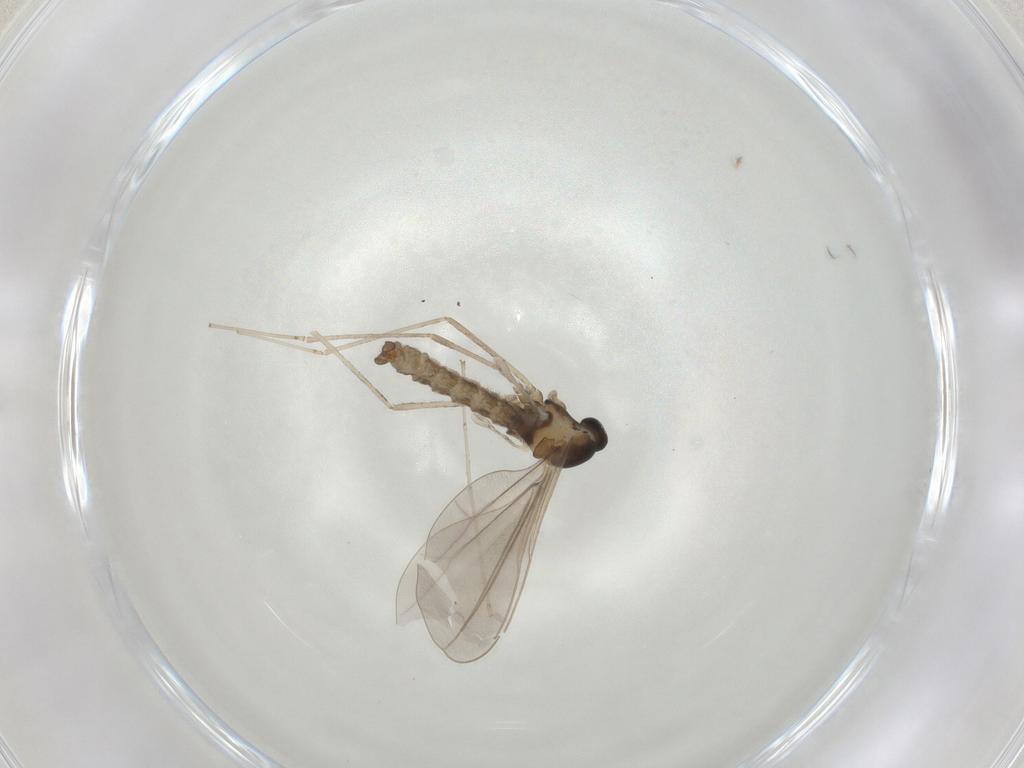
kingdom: Animalia
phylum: Arthropoda
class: Insecta
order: Diptera
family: Cecidomyiidae
